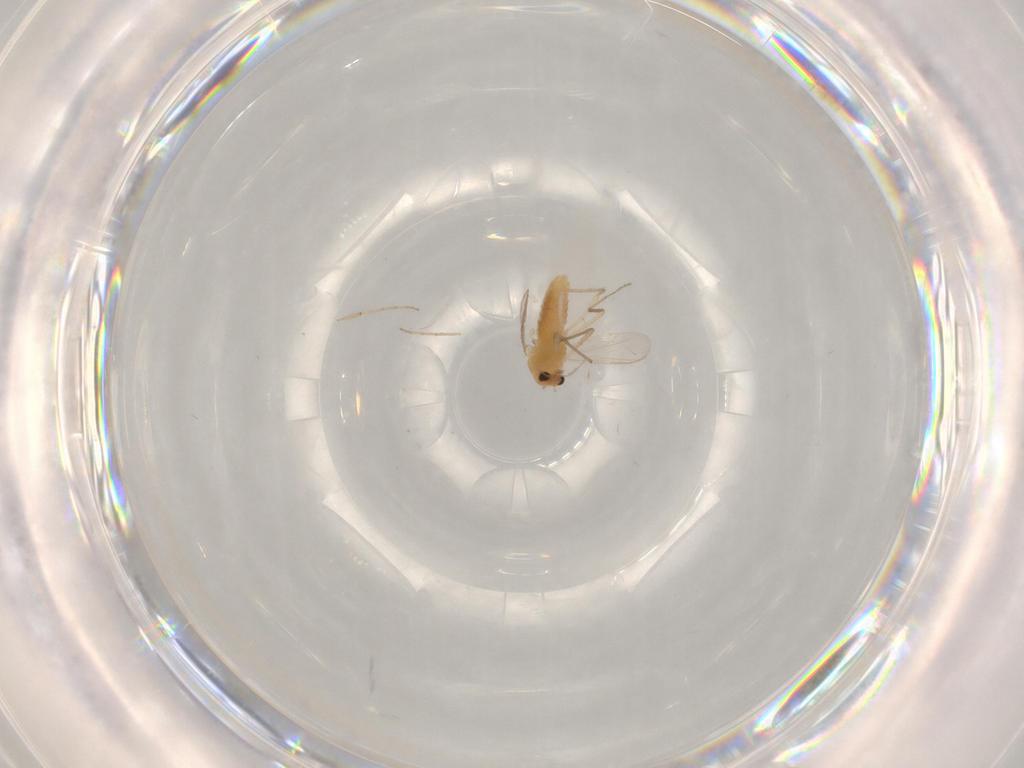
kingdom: Animalia
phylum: Arthropoda
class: Insecta
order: Diptera
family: Chironomidae
